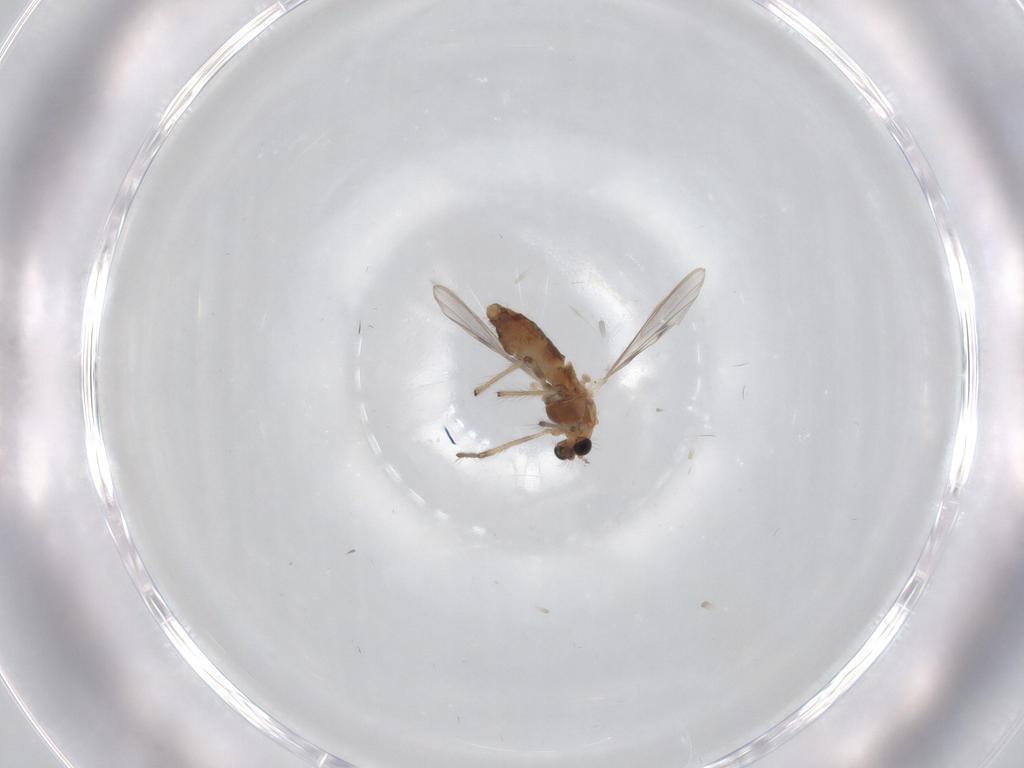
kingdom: Animalia
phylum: Arthropoda
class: Insecta
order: Diptera
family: Chironomidae
